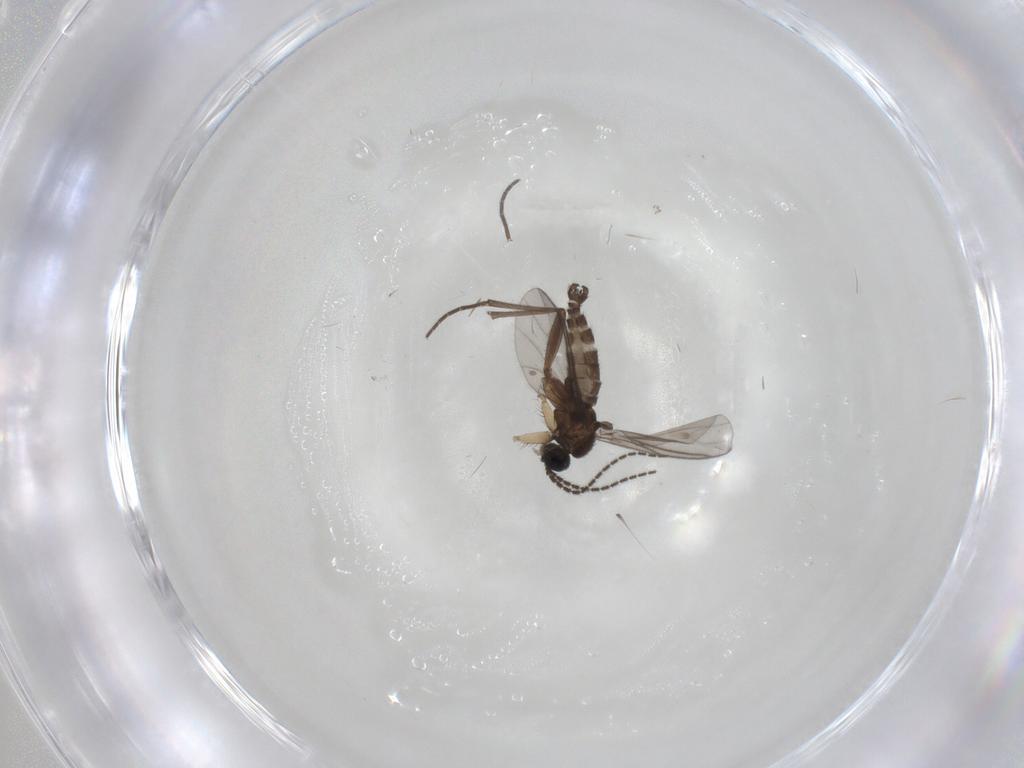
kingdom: Animalia
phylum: Arthropoda
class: Insecta
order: Diptera
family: Sciaridae
